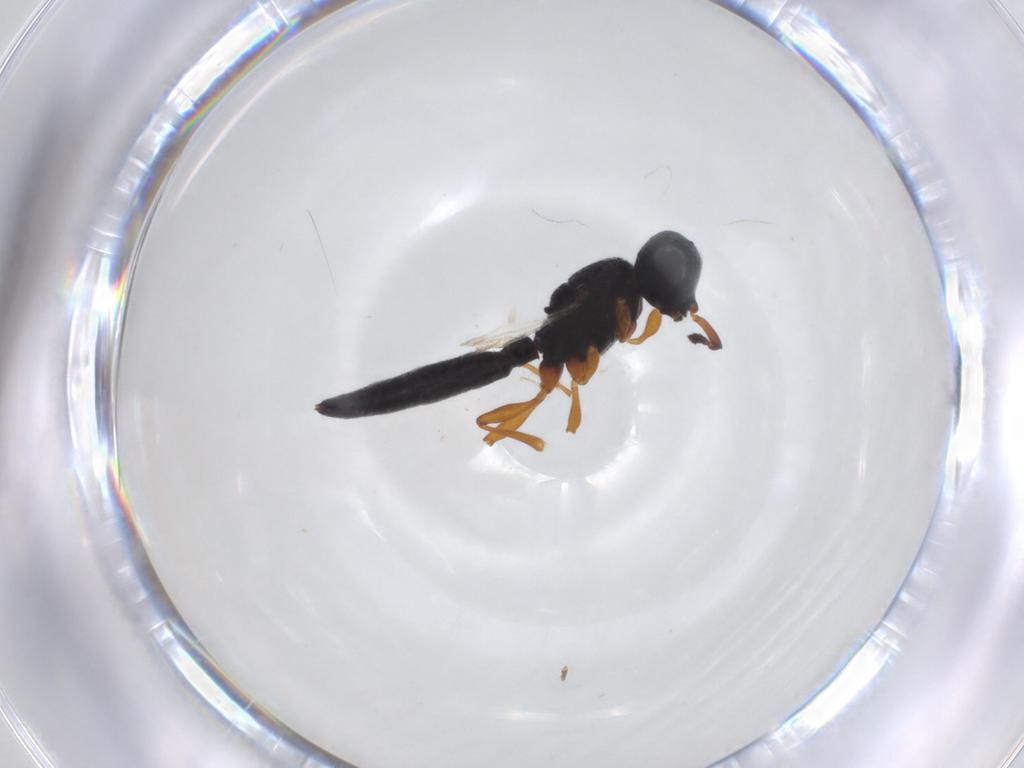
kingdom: Animalia
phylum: Arthropoda
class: Insecta
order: Hymenoptera
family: Scelionidae
